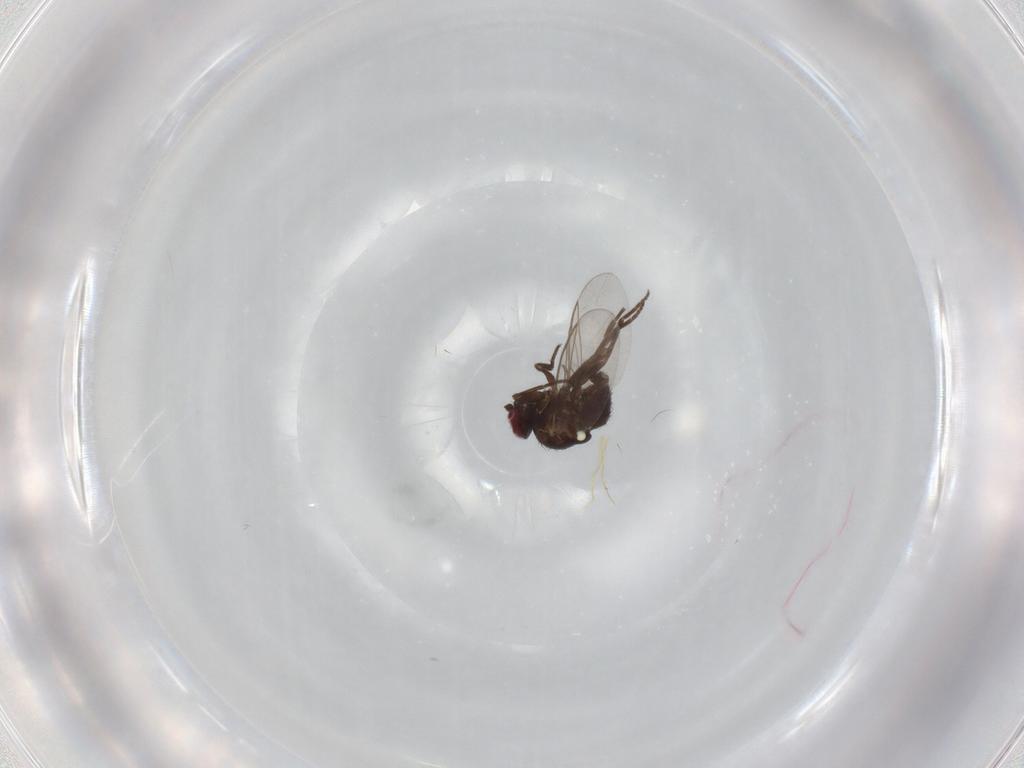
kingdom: Animalia
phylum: Arthropoda
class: Insecta
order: Diptera
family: Agromyzidae
